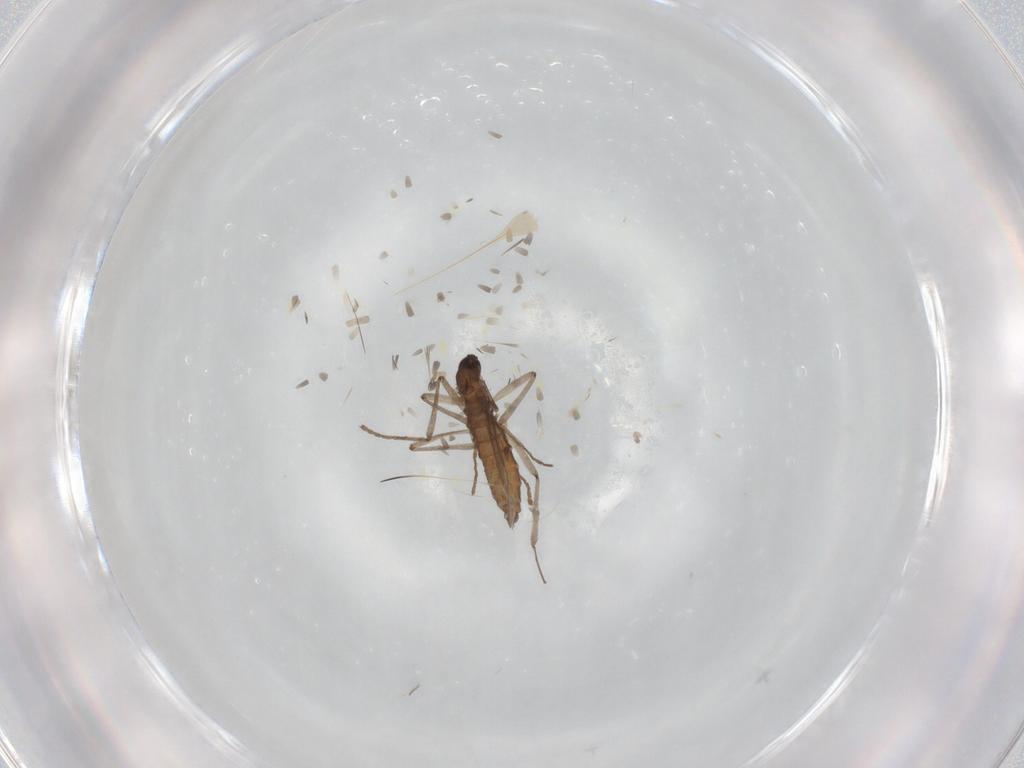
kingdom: Animalia
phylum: Arthropoda
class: Insecta
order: Diptera
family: Cecidomyiidae
